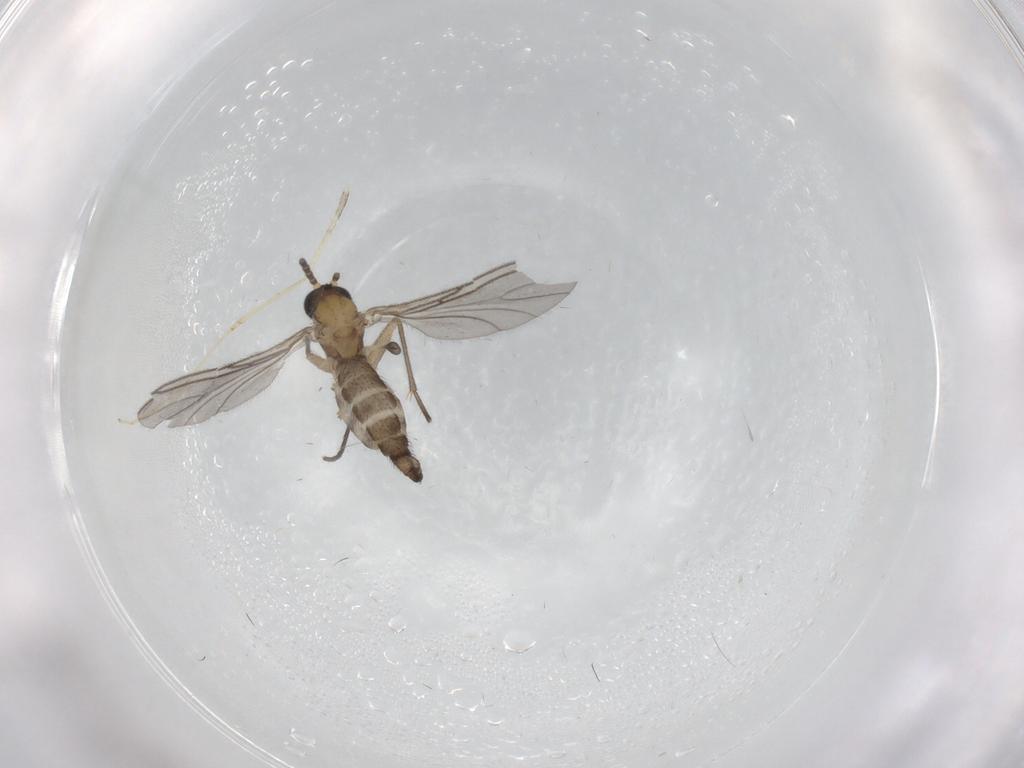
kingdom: Animalia
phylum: Arthropoda
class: Insecta
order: Diptera
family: Sciaridae
